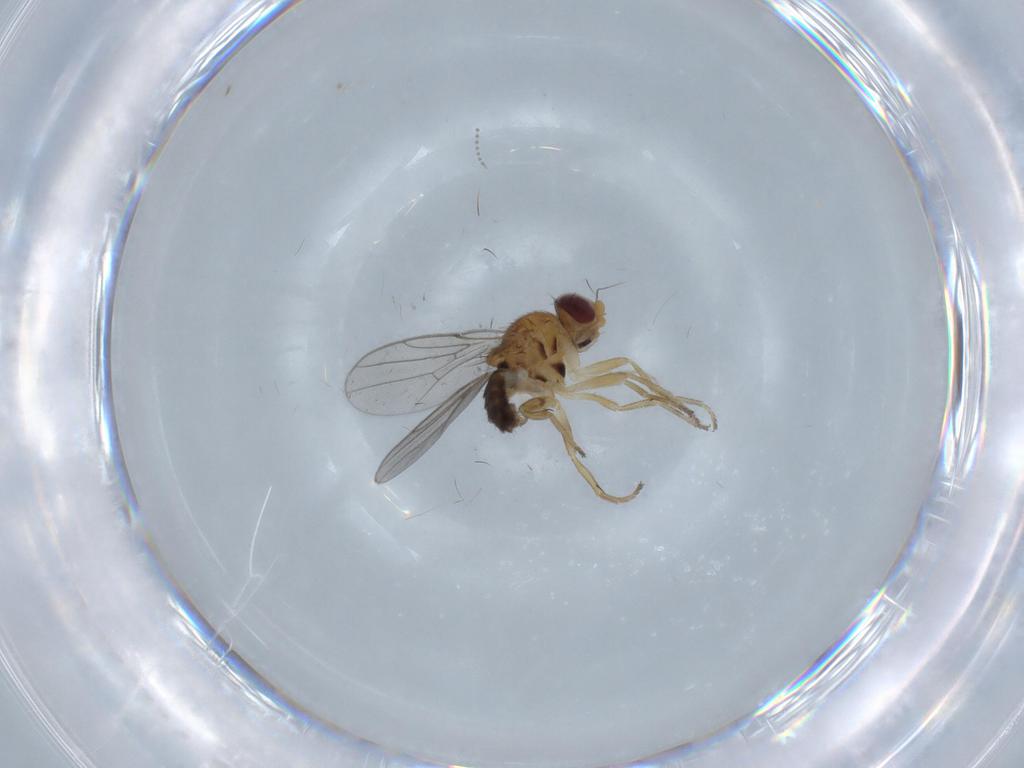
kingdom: Animalia
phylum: Arthropoda
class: Insecta
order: Diptera
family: Chloropidae
